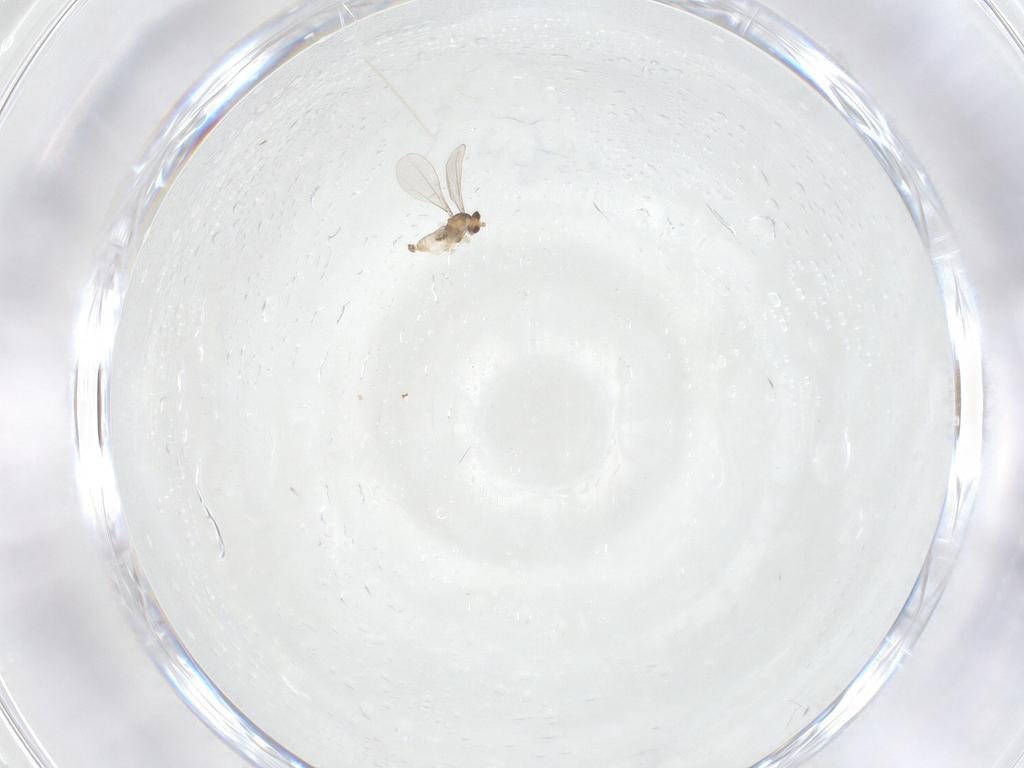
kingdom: Animalia
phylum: Arthropoda
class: Insecta
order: Diptera
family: Cecidomyiidae
